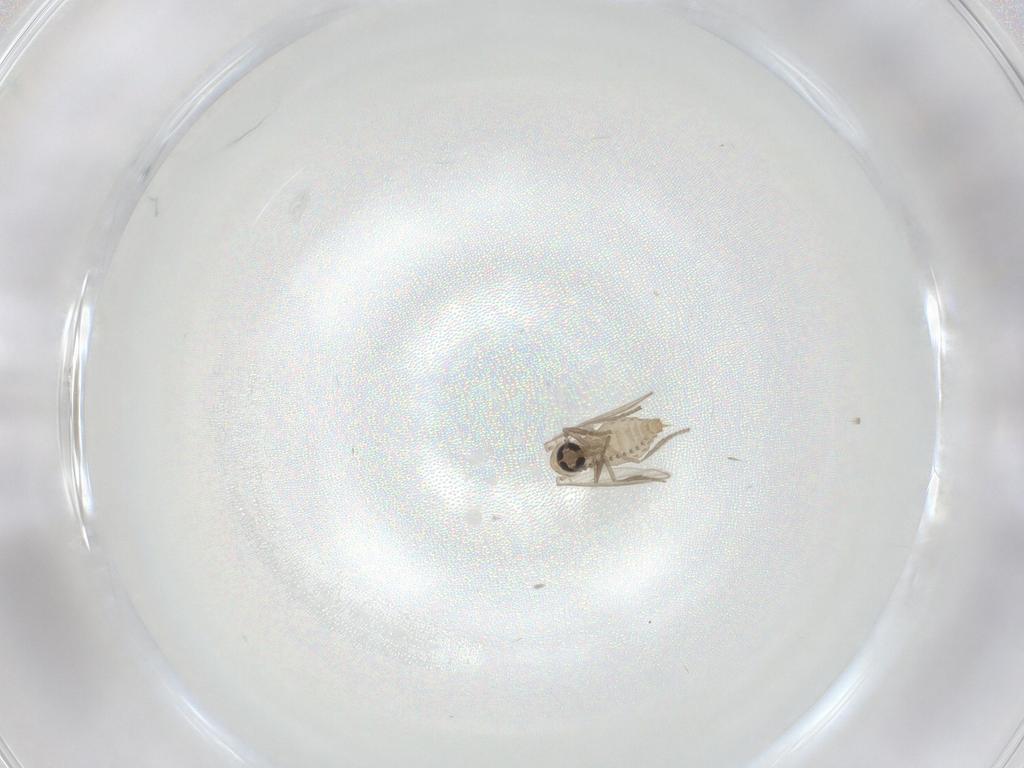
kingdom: Animalia
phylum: Arthropoda
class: Insecta
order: Diptera
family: Psychodidae
